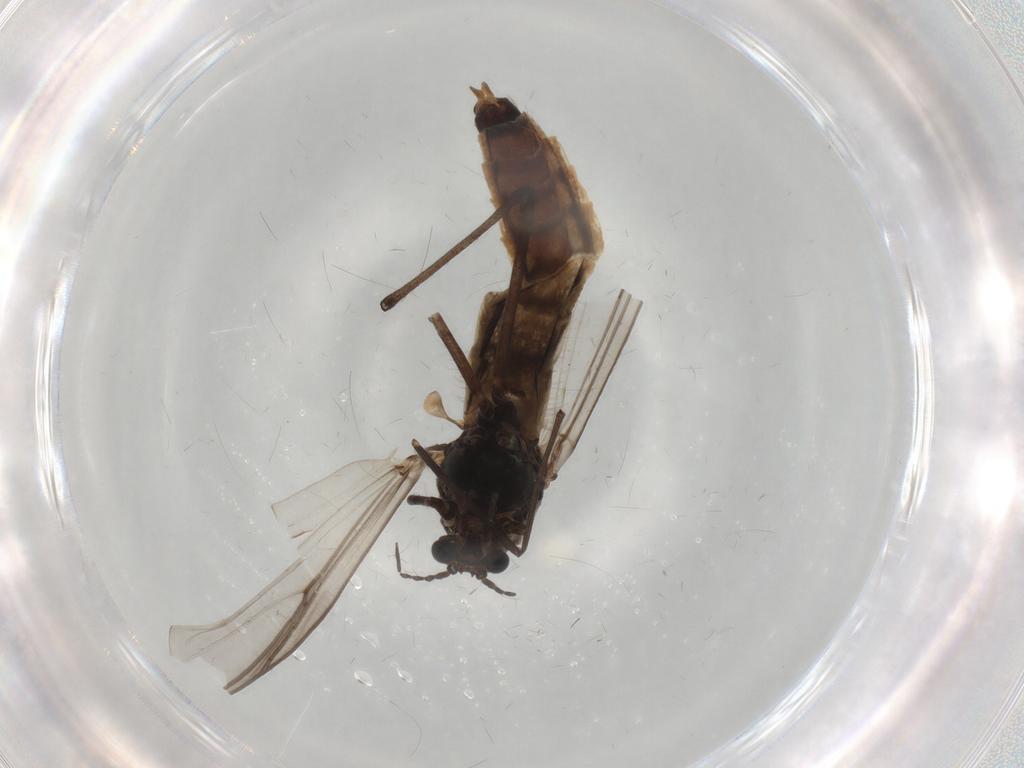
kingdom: Animalia
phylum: Arthropoda
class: Insecta
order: Diptera
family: Chironomidae
